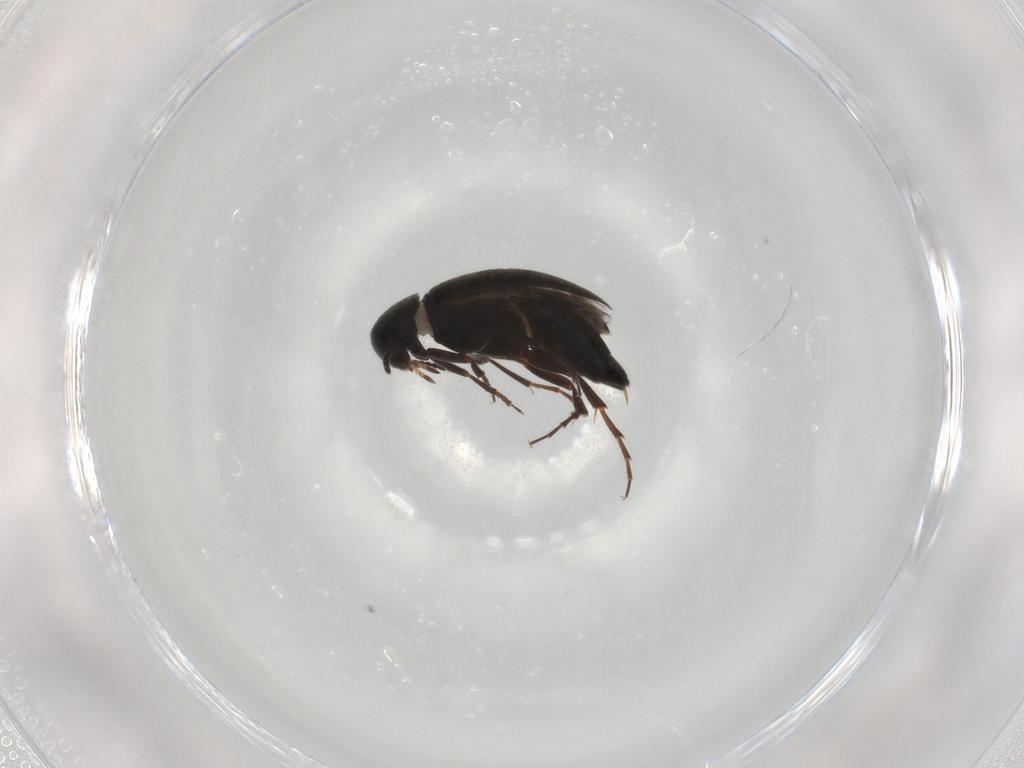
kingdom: Animalia
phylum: Arthropoda
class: Insecta
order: Coleoptera
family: Scraptiidae
